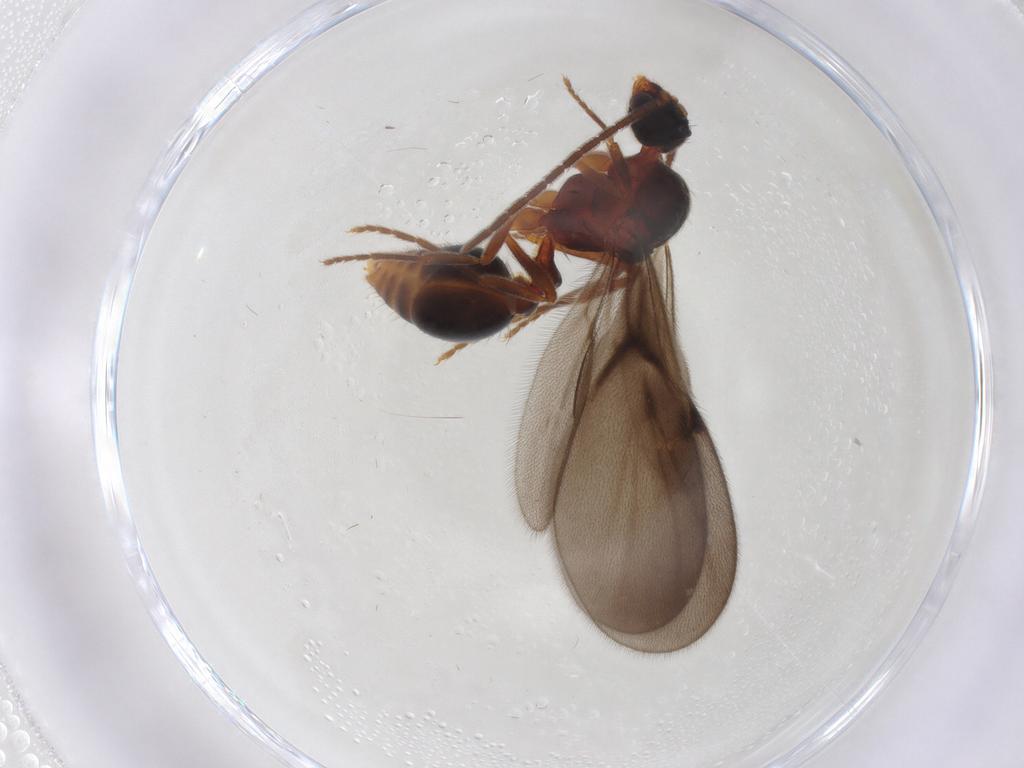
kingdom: Animalia
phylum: Arthropoda
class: Insecta
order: Hymenoptera
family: Formicidae
